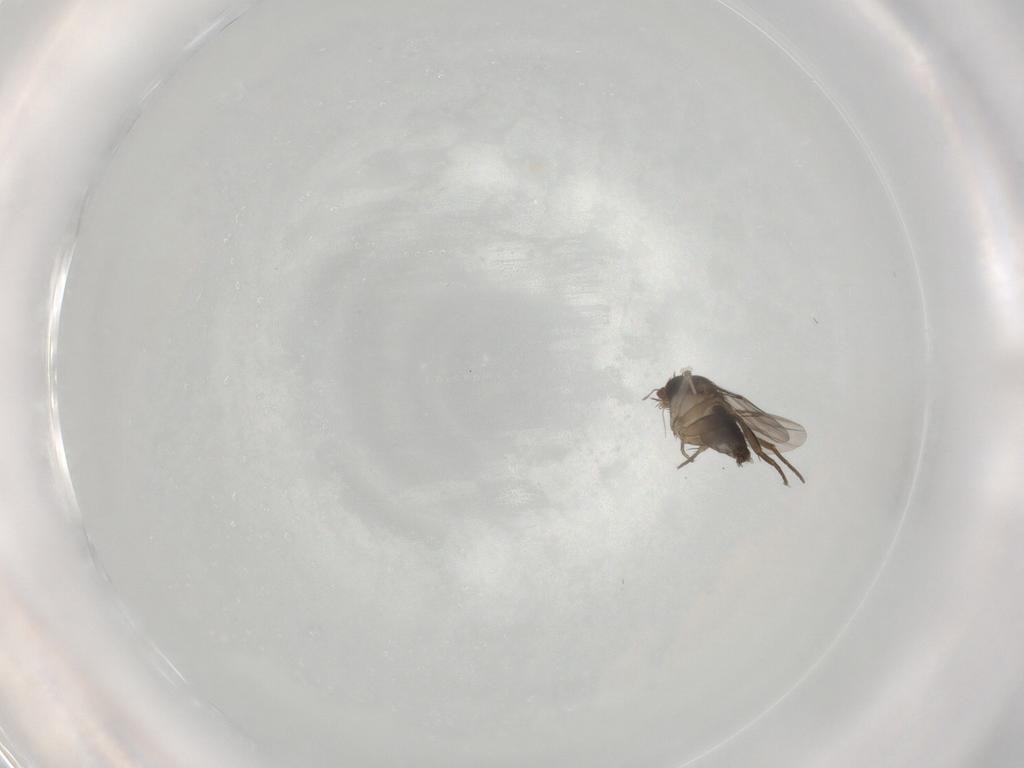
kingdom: Animalia
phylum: Arthropoda
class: Insecta
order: Diptera
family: Phoridae
